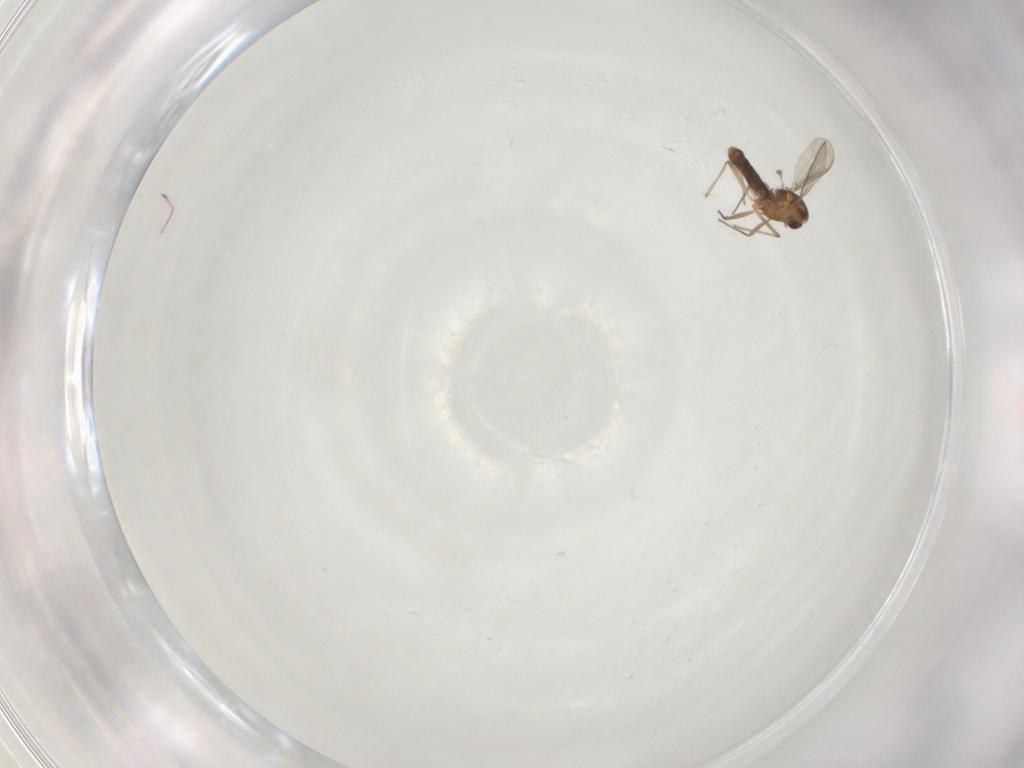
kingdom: Animalia
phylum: Arthropoda
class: Insecta
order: Diptera
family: Chironomidae
